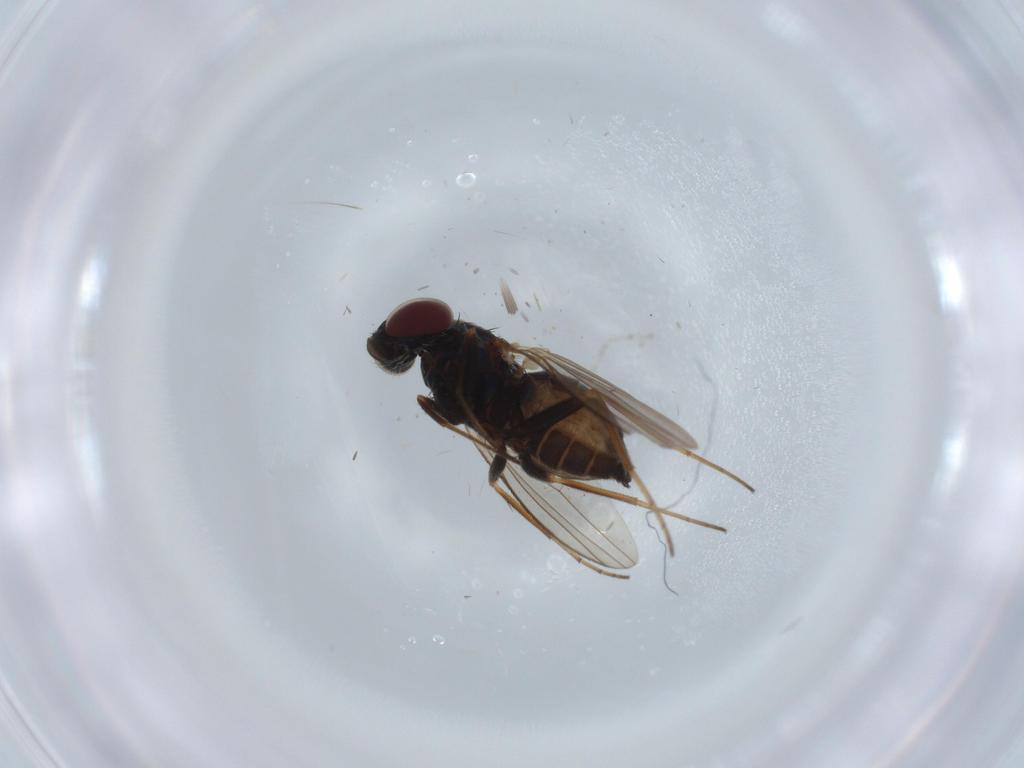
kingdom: Animalia
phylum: Arthropoda
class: Insecta
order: Diptera
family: Dolichopodidae
